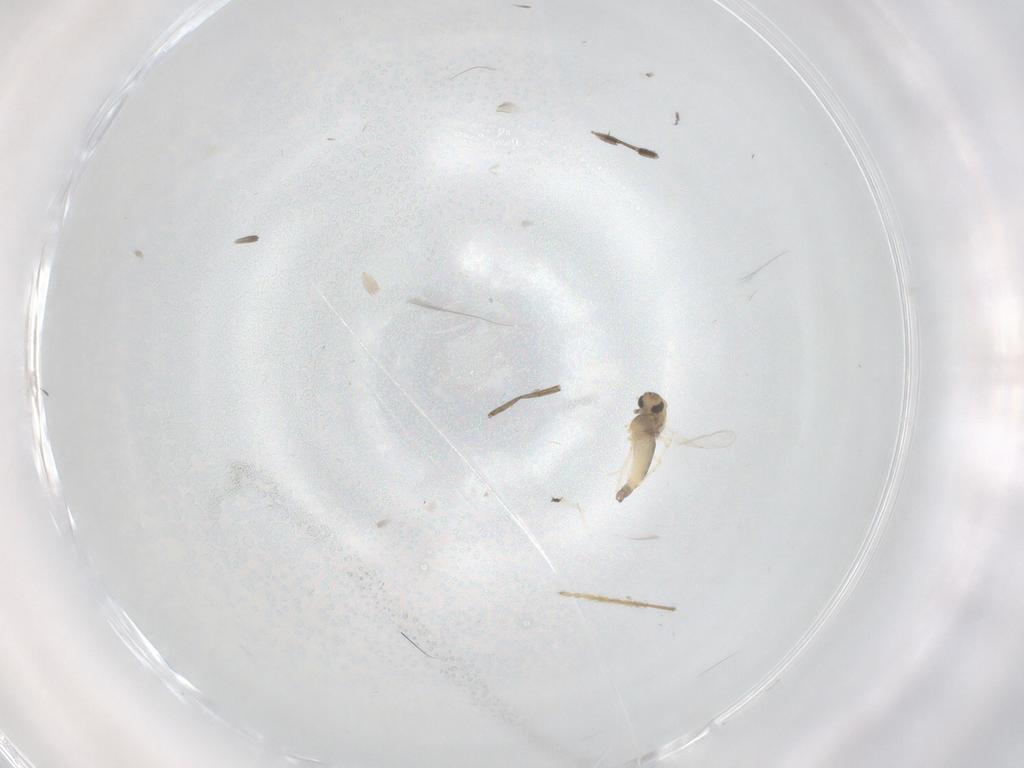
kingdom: Animalia
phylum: Arthropoda
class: Insecta
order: Diptera
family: Limoniidae
